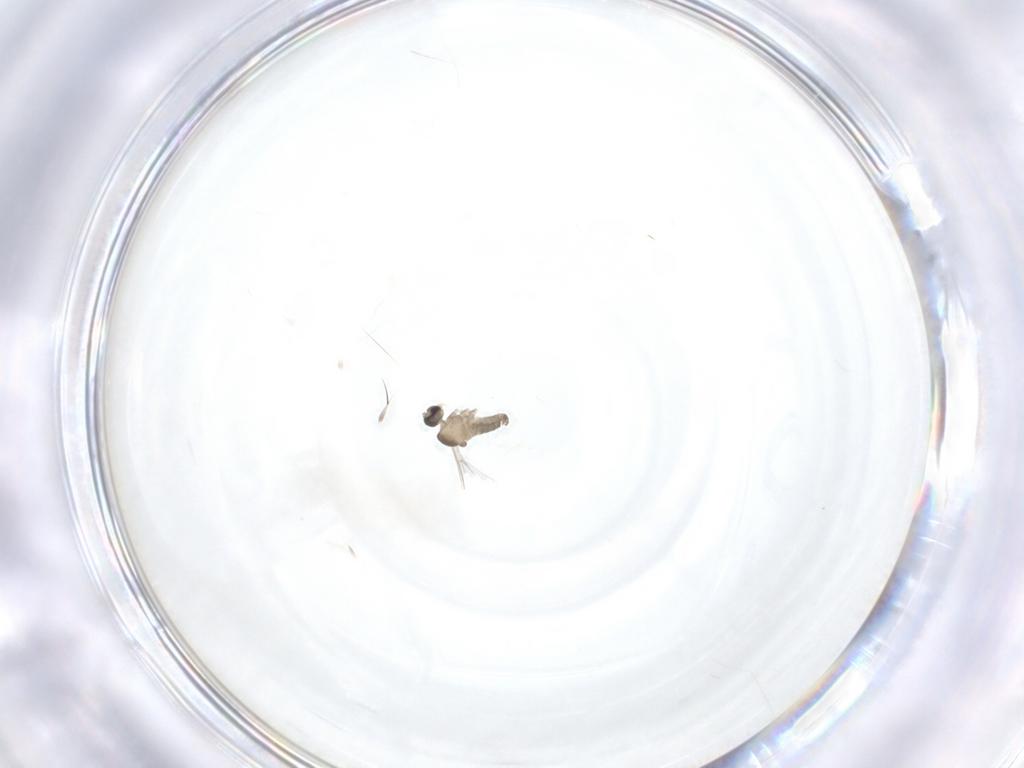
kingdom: Animalia
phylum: Arthropoda
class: Insecta
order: Diptera
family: Cecidomyiidae
